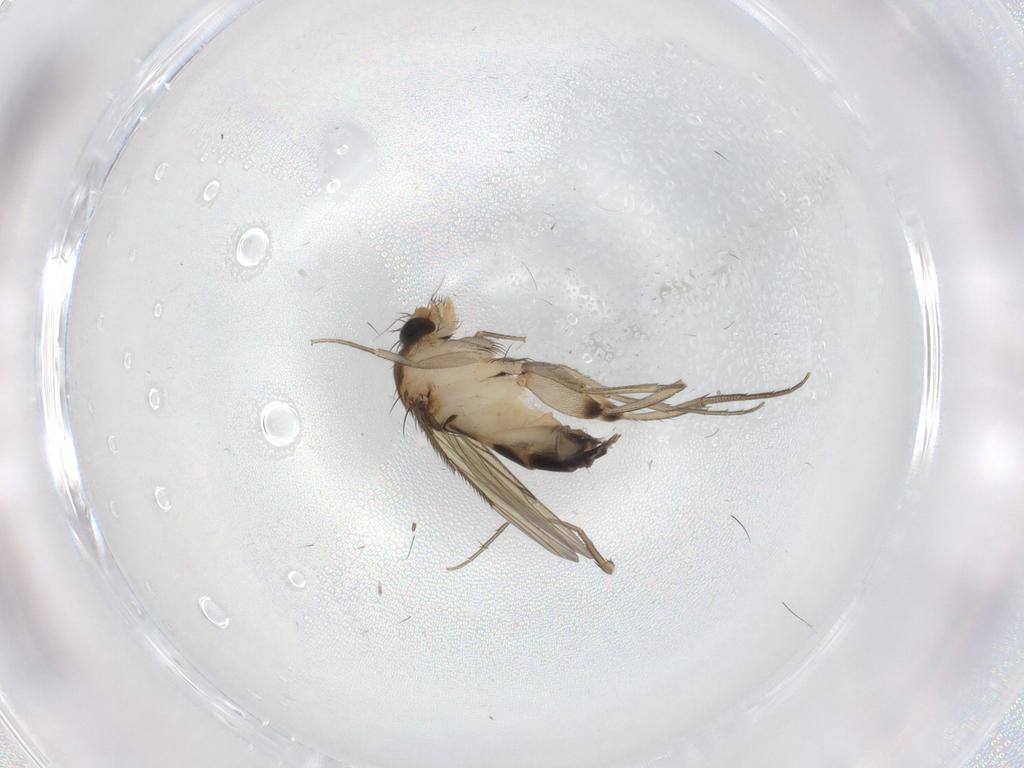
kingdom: Animalia
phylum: Arthropoda
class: Insecta
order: Diptera
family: Phoridae
